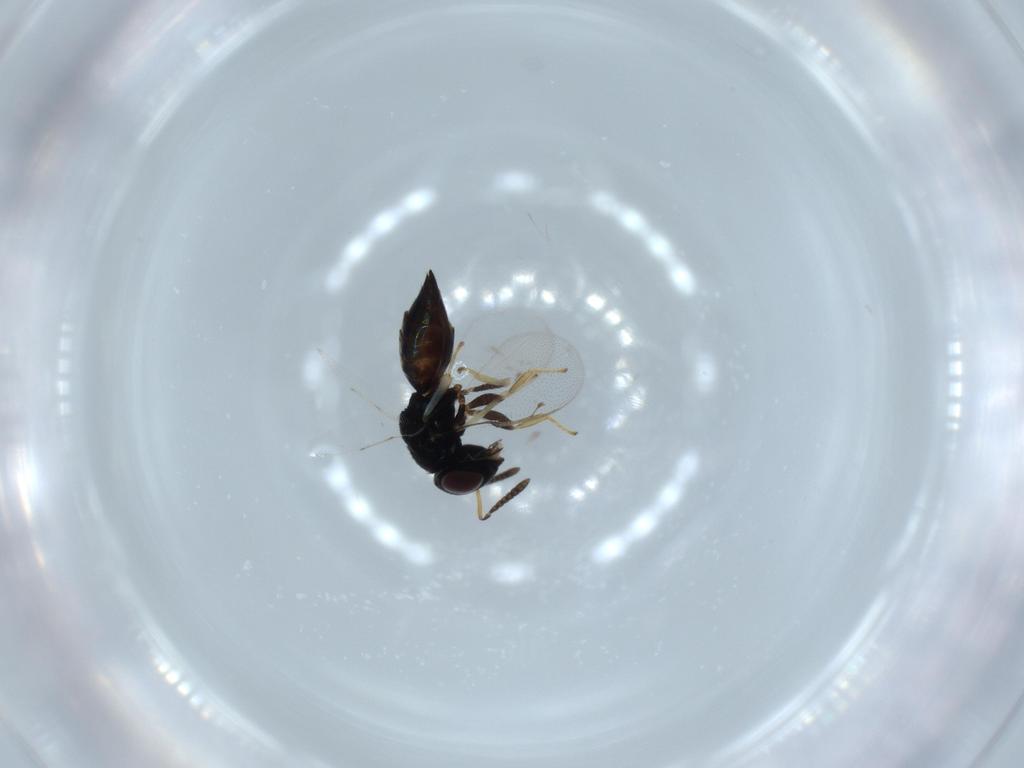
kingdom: Animalia
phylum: Arthropoda
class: Insecta
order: Hymenoptera
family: Pteromalidae
